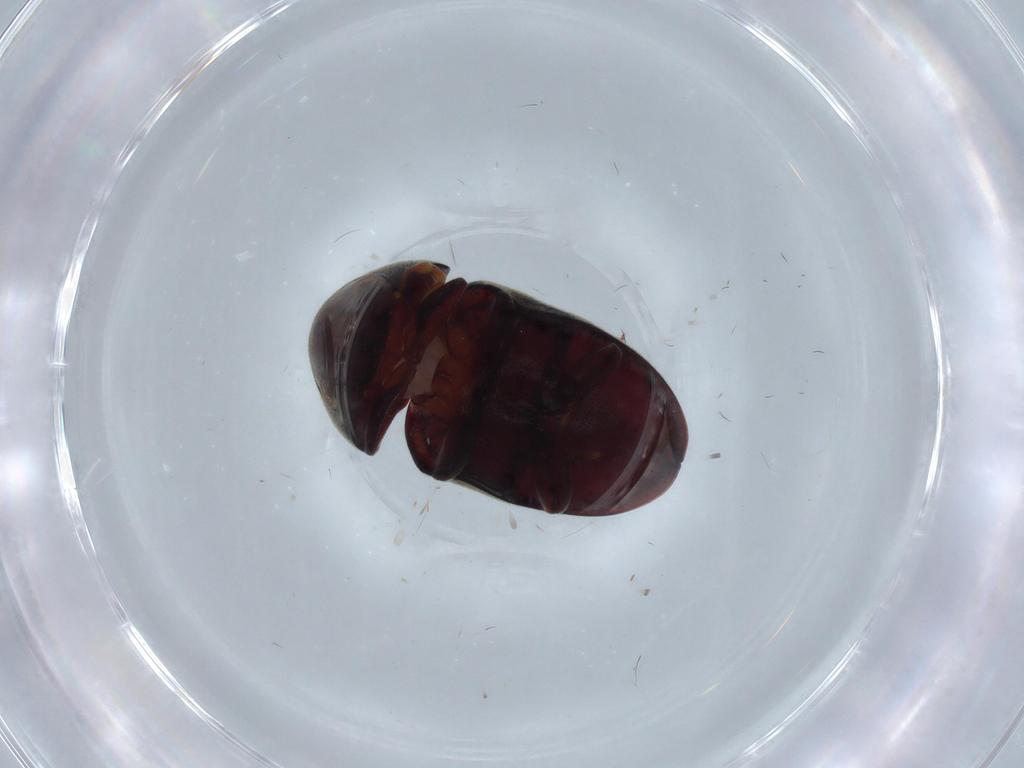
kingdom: Animalia
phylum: Arthropoda
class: Insecta
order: Coleoptera
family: Ptinidae
